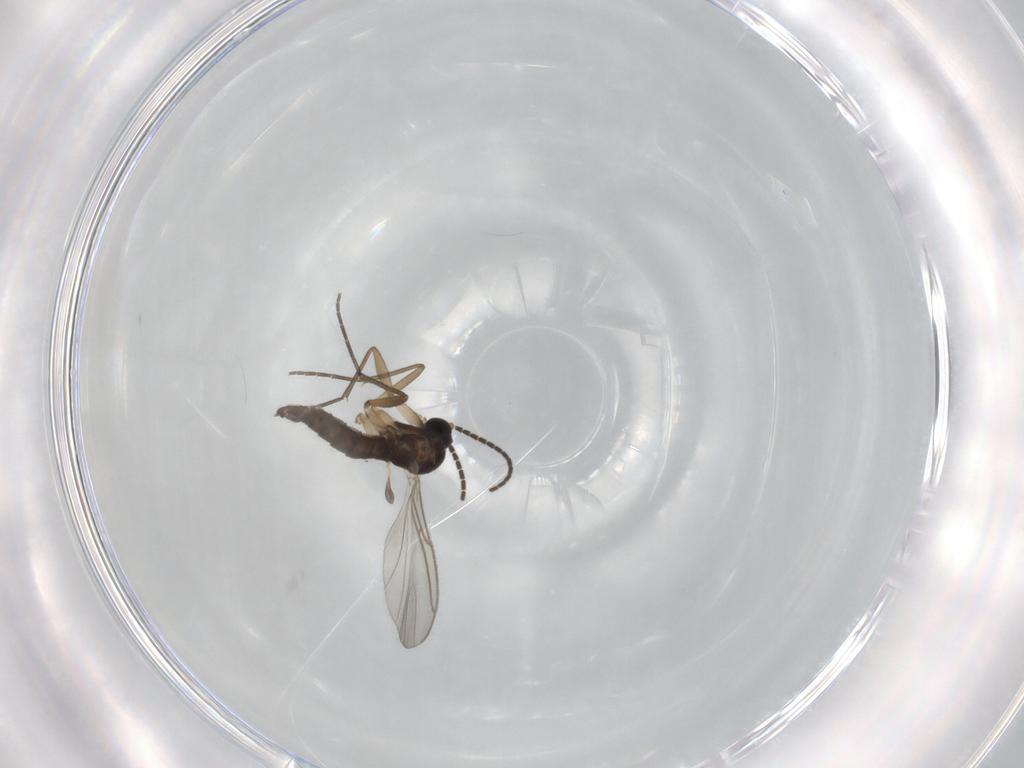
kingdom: Animalia
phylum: Arthropoda
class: Insecta
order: Diptera
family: Sciaridae
